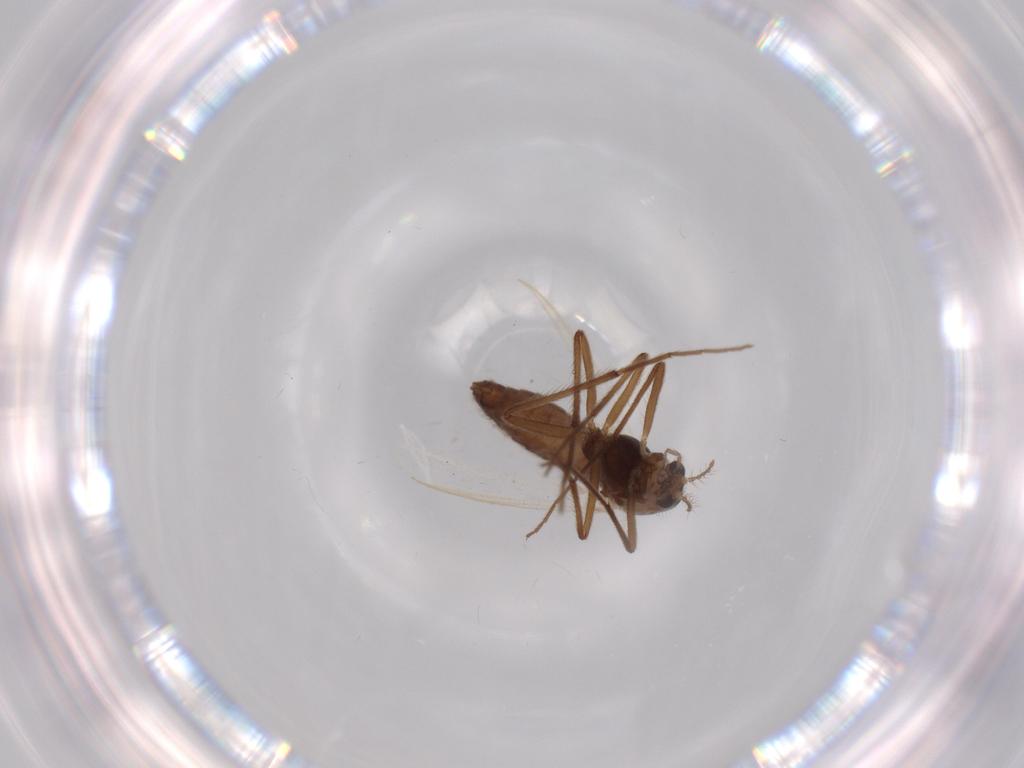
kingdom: Animalia
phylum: Arthropoda
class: Insecta
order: Diptera
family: Chironomidae
